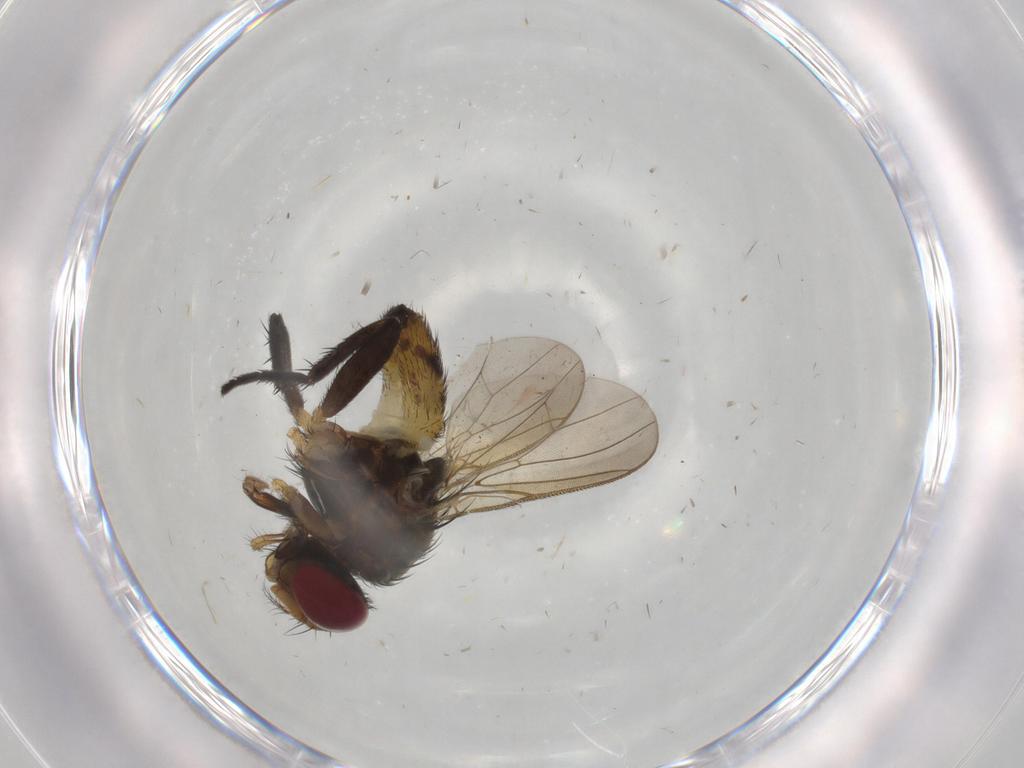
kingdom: Animalia
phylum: Arthropoda
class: Insecta
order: Diptera
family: Anthomyiidae
